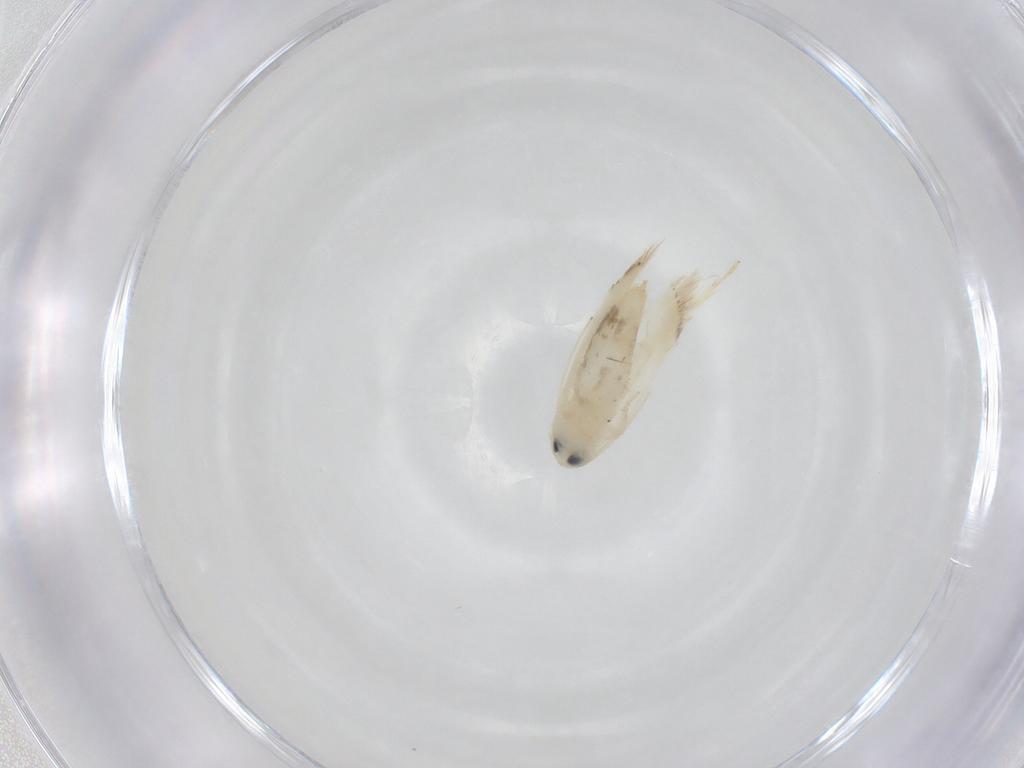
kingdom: Animalia
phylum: Arthropoda
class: Insecta
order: Lepidoptera
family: Opostegidae
